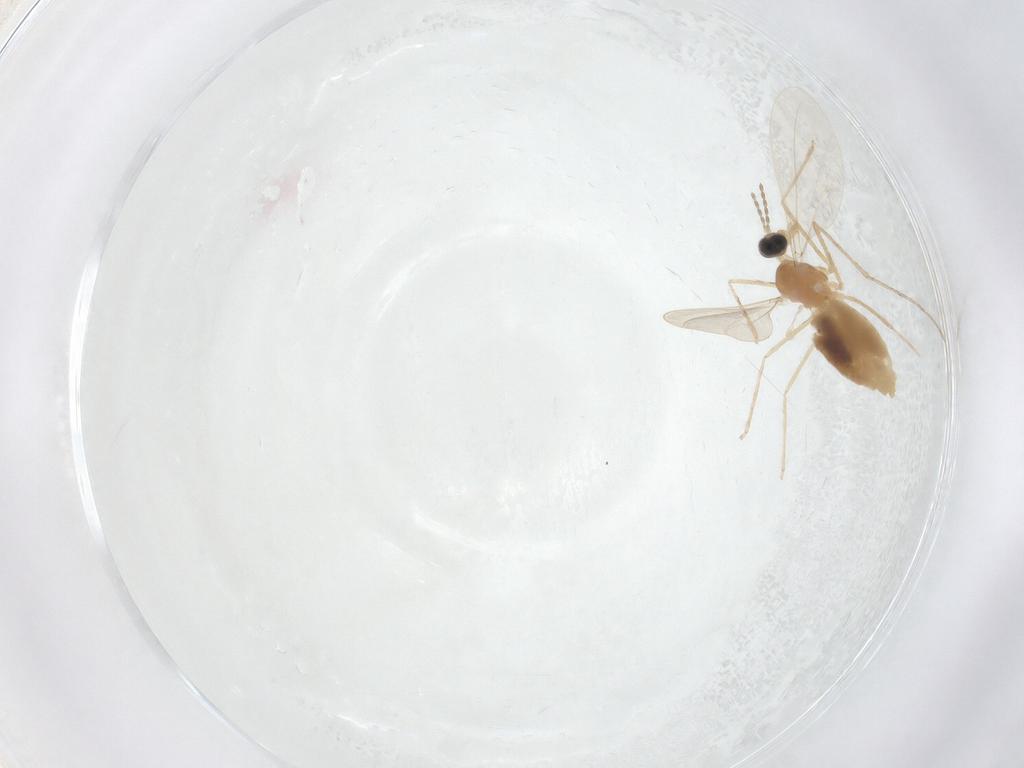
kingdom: Animalia
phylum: Arthropoda
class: Insecta
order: Diptera
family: Cecidomyiidae
